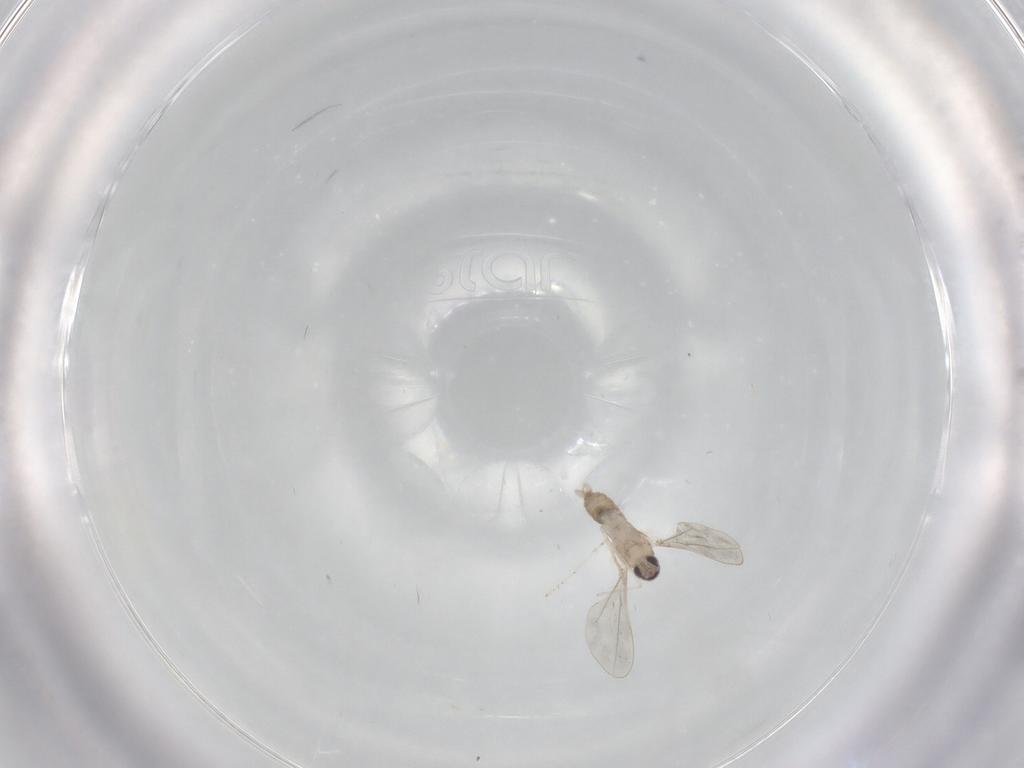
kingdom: Animalia
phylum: Arthropoda
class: Insecta
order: Diptera
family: Cecidomyiidae
